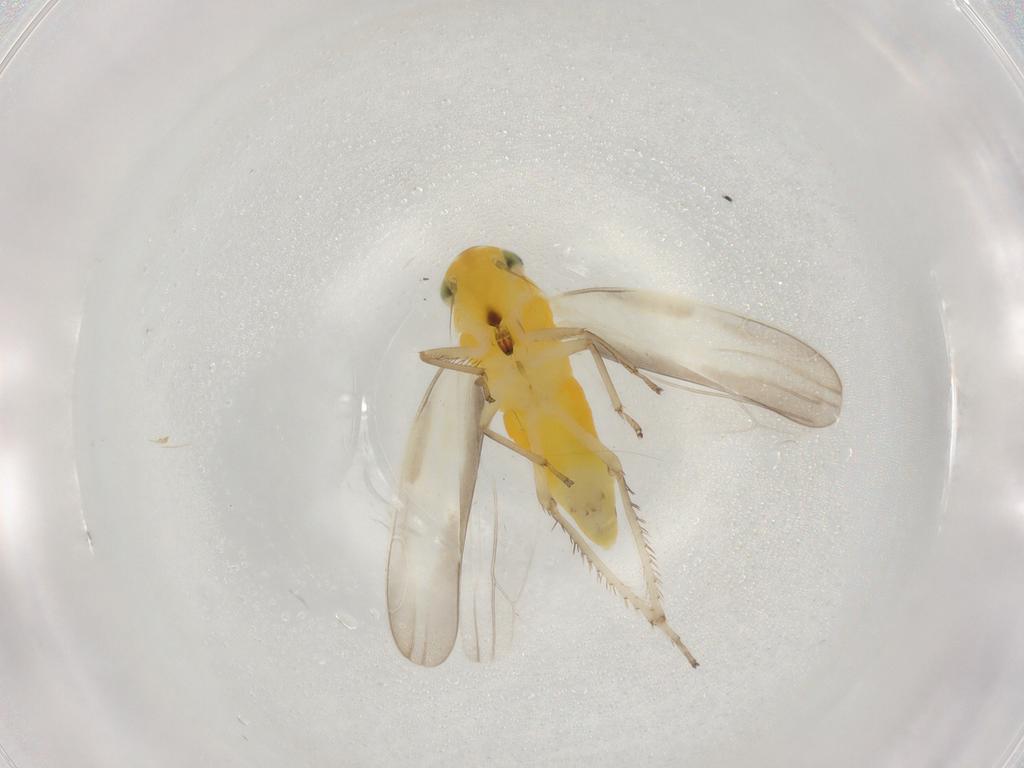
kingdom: Animalia
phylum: Arthropoda
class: Insecta
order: Hemiptera
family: Cicadellidae
